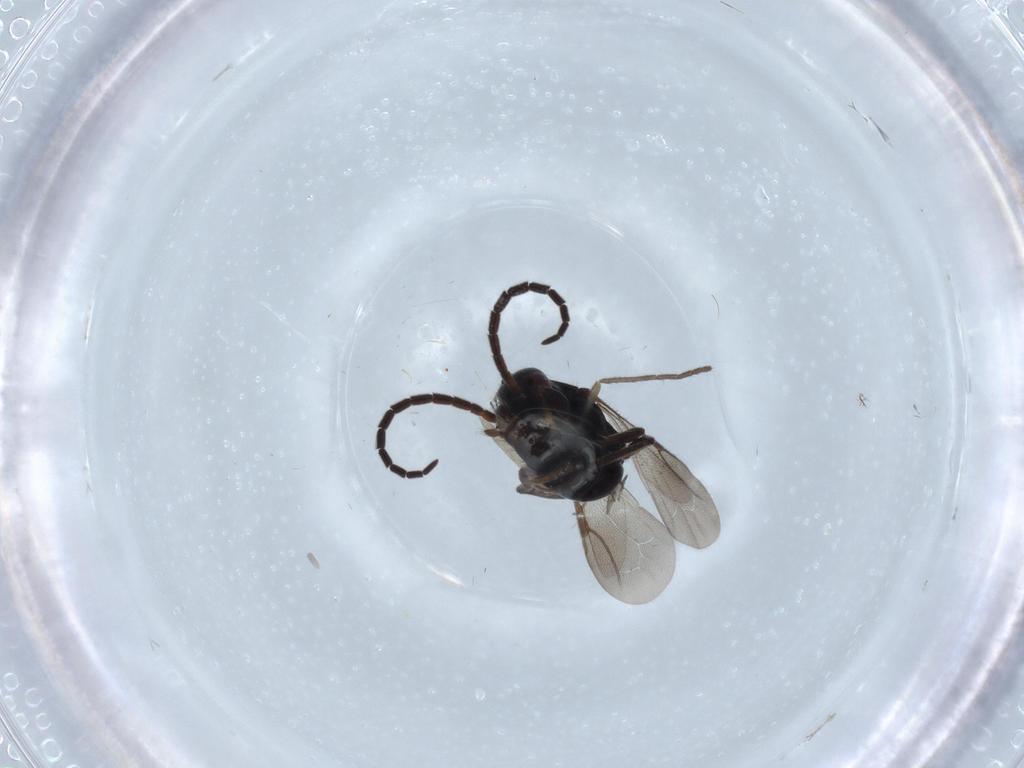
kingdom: Animalia
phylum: Arthropoda
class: Insecta
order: Hymenoptera
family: Bethylidae
